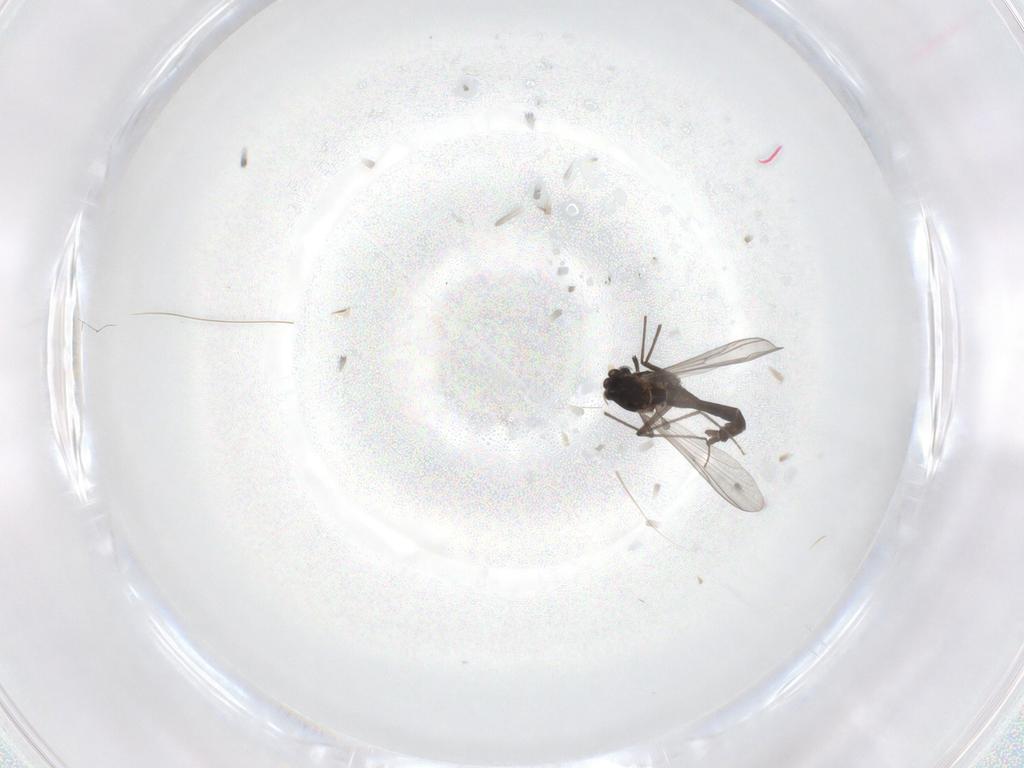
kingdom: Animalia
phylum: Arthropoda
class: Insecta
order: Diptera
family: Chironomidae
